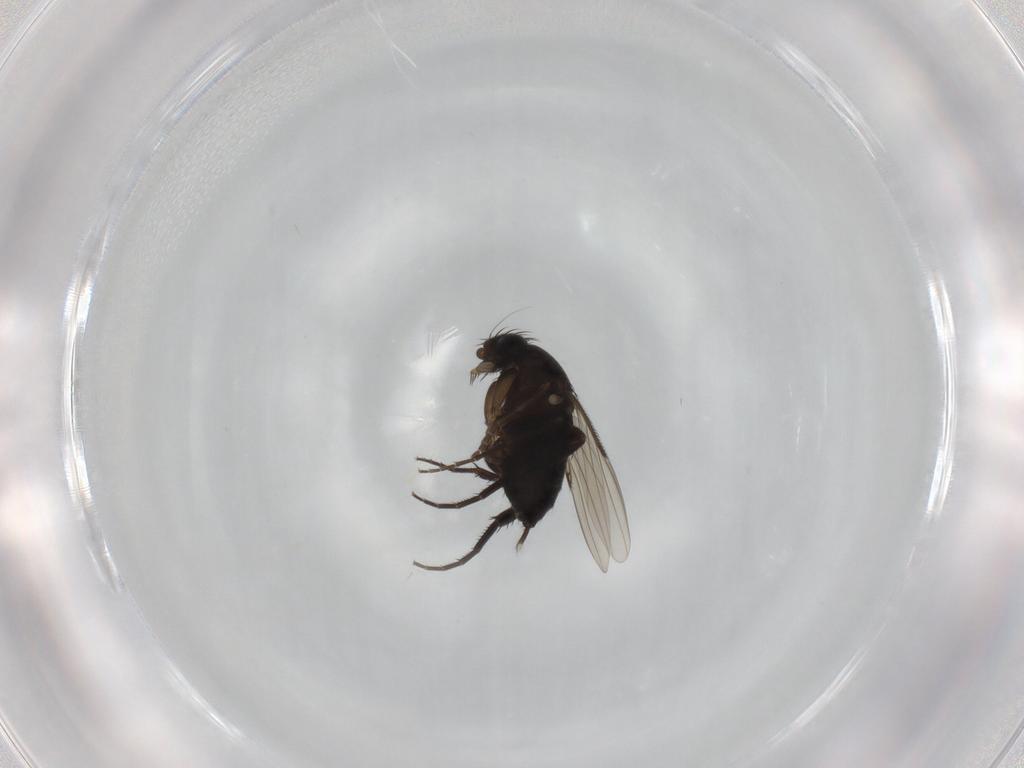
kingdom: Animalia
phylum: Arthropoda
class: Insecta
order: Diptera
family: Phoridae
